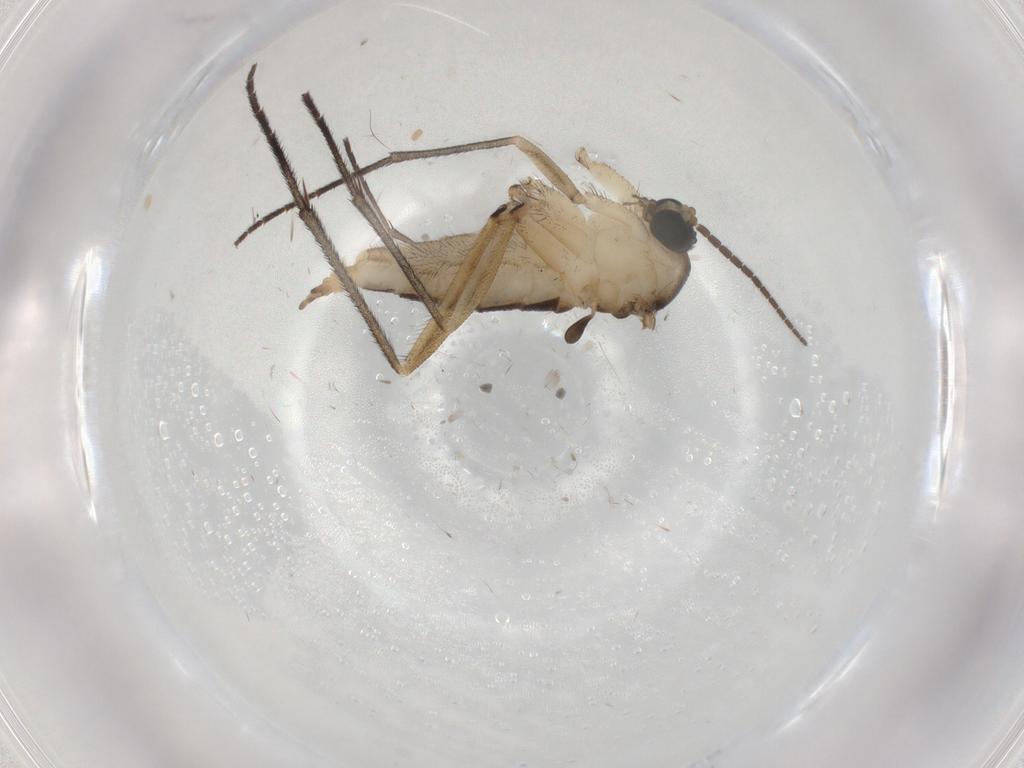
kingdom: Animalia
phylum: Arthropoda
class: Insecta
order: Diptera
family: Sciaridae
